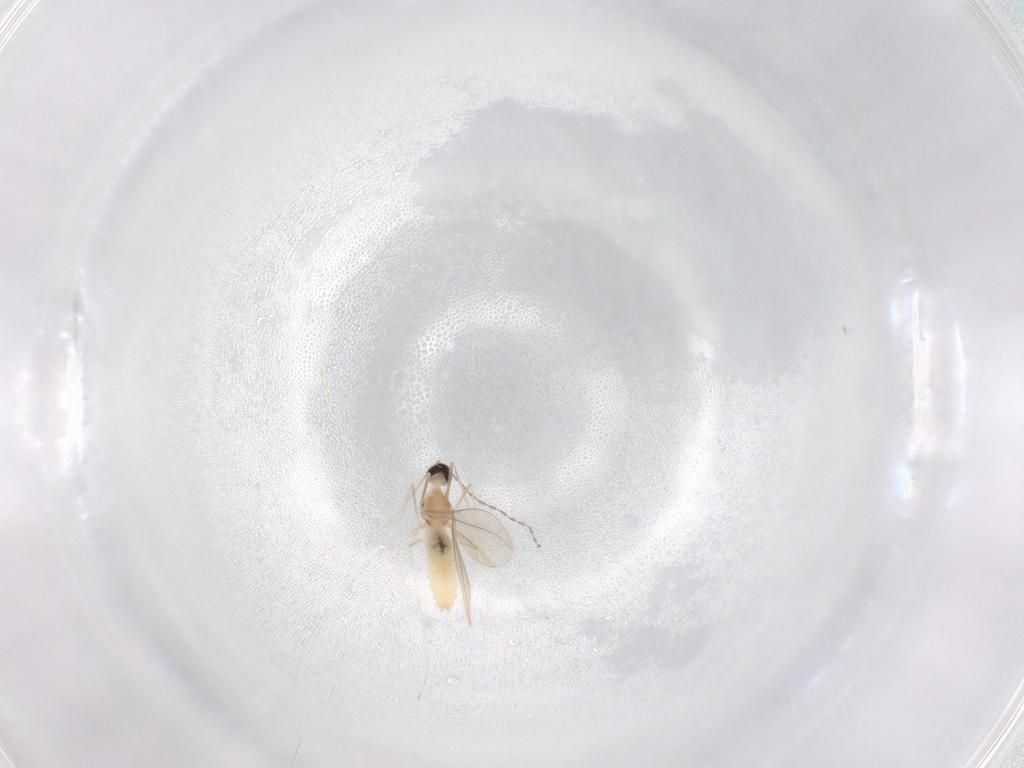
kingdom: Animalia
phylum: Arthropoda
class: Insecta
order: Diptera
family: Cecidomyiidae
